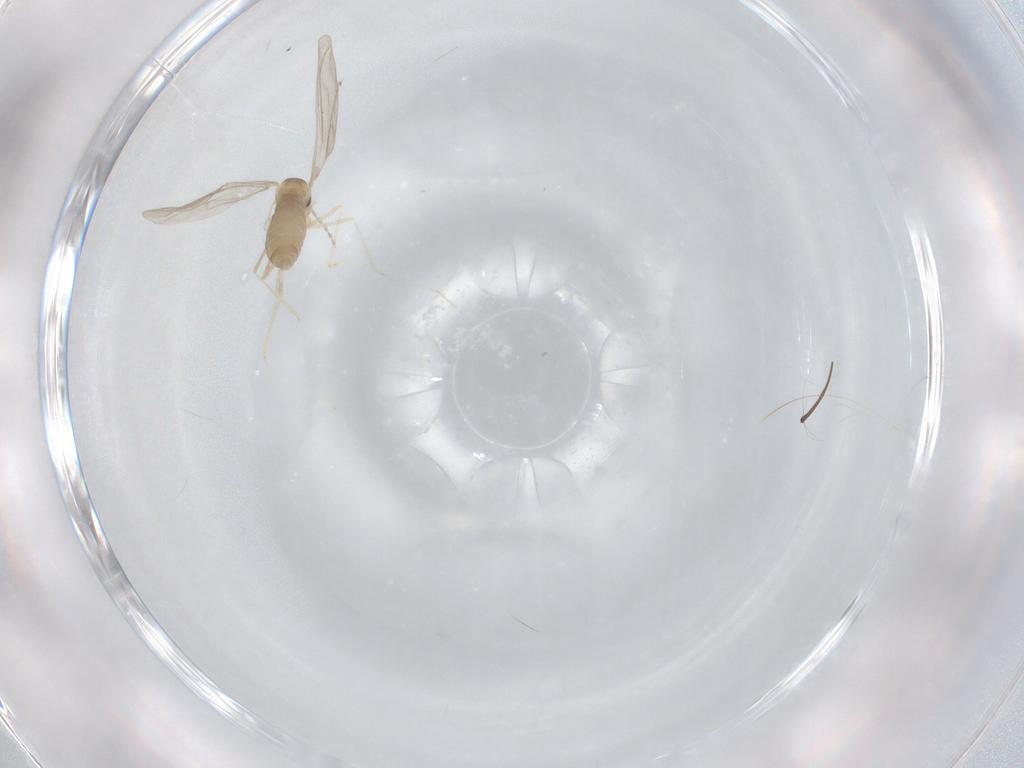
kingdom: Animalia
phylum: Arthropoda
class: Insecta
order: Diptera
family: Cecidomyiidae
